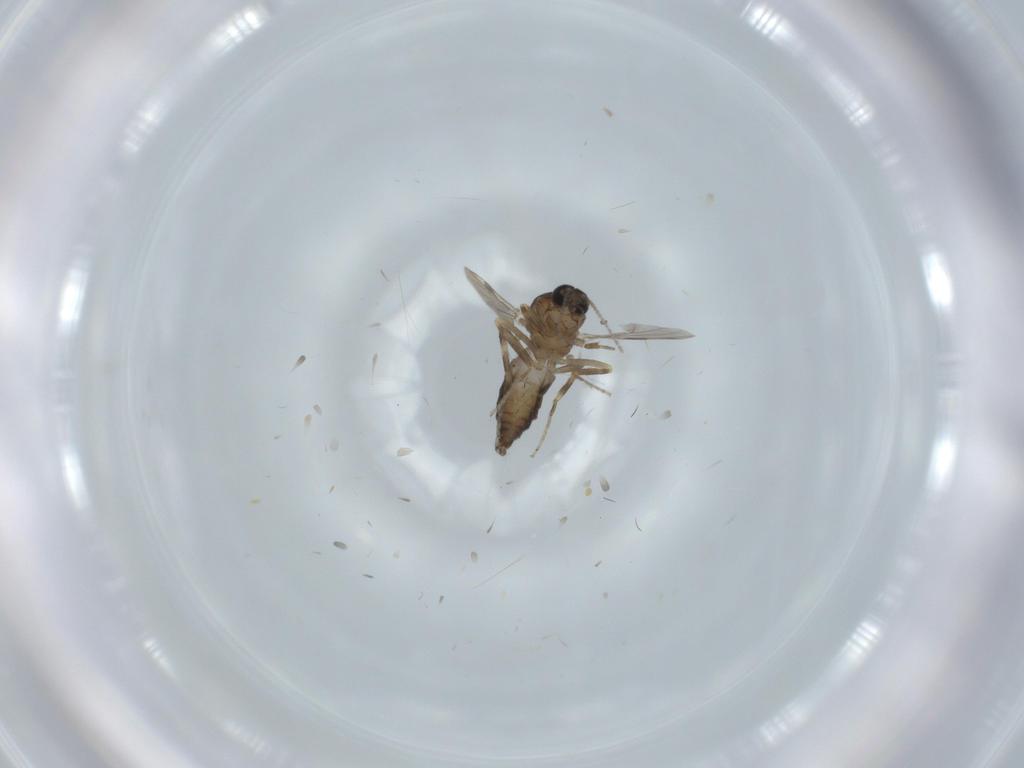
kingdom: Animalia
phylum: Arthropoda
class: Insecta
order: Diptera
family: Ceratopogonidae
